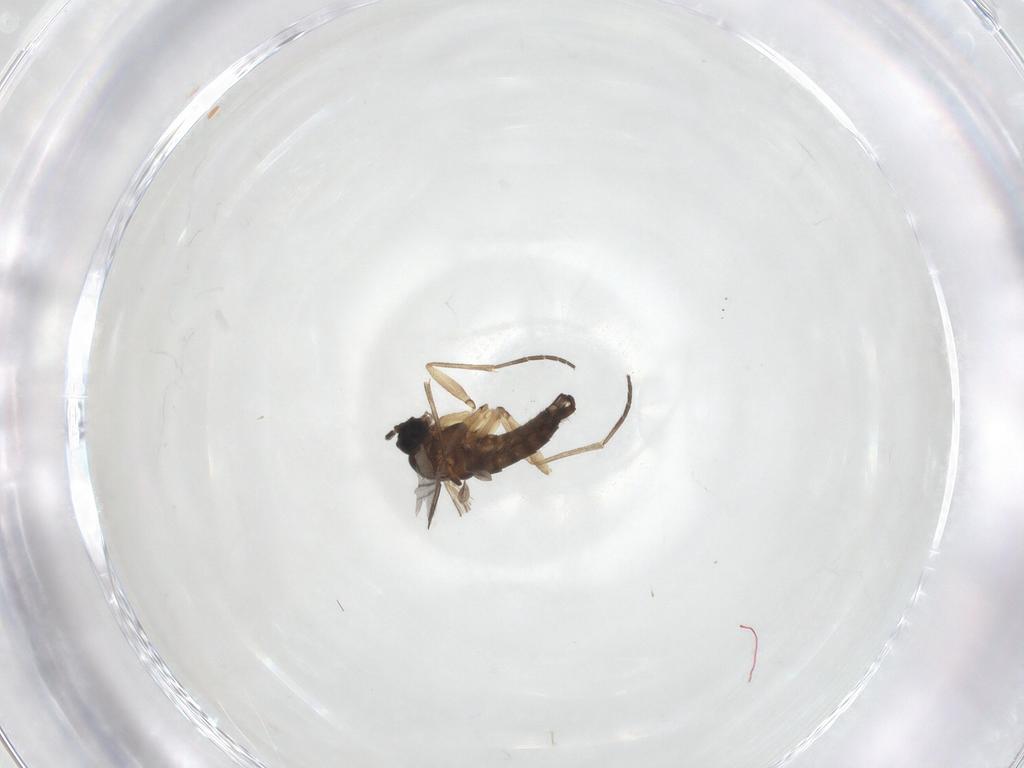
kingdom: Animalia
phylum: Arthropoda
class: Insecta
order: Diptera
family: Sciaridae
